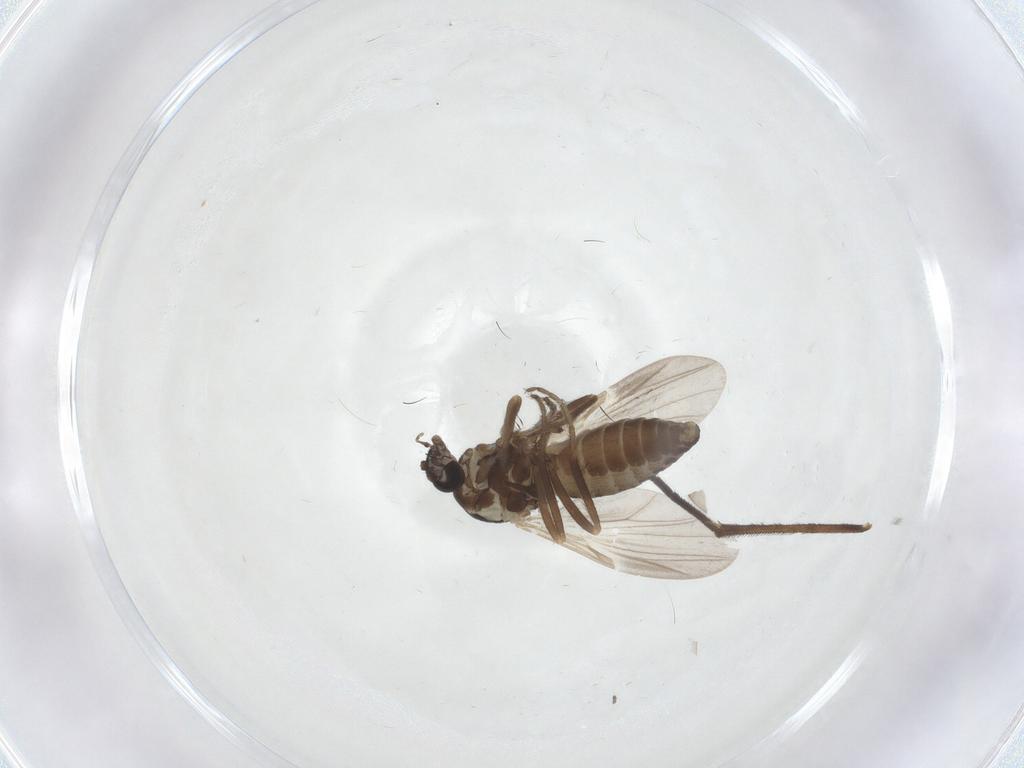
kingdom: Animalia
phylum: Arthropoda
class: Insecta
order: Diptera
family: Ceratopogonidae
